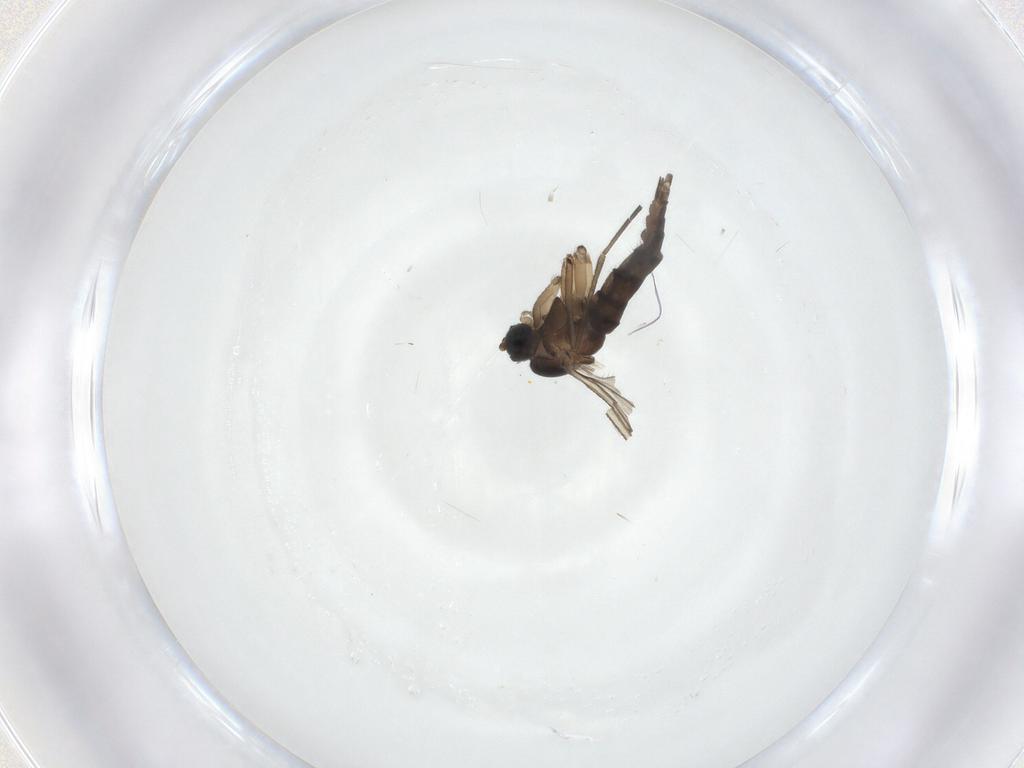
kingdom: Animalia
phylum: Arthropoda
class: Insecta
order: Diptera
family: Sciaridae
